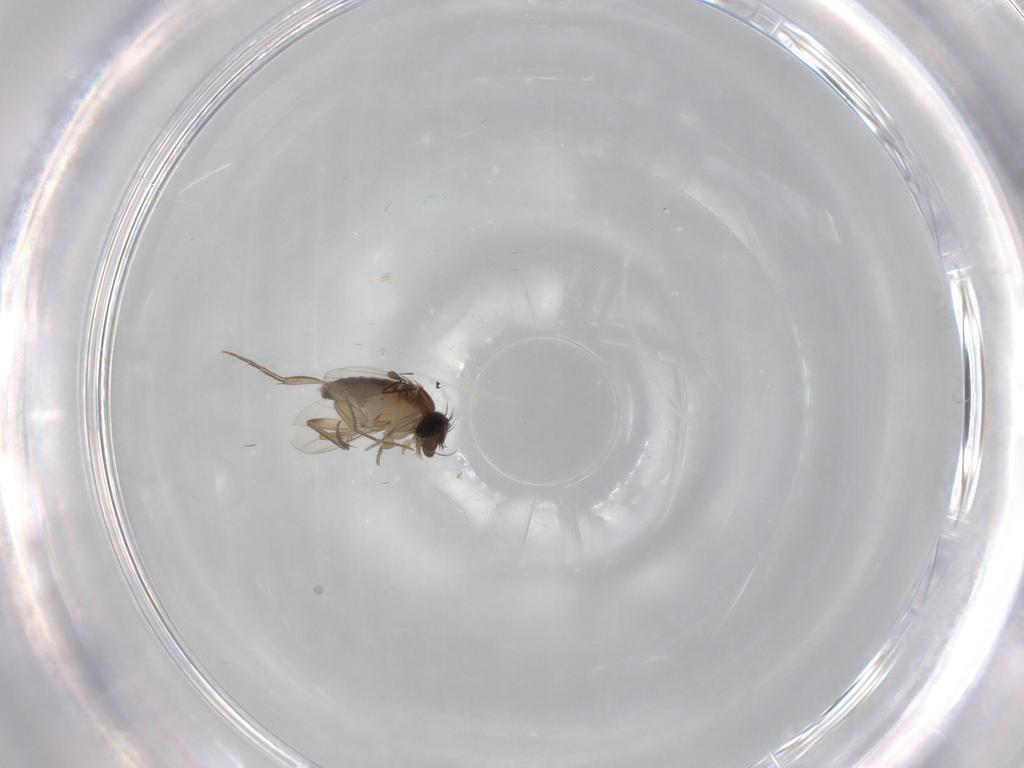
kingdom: Animalia
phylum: Arthropoda
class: Insecta
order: Diptera
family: Phoridae
